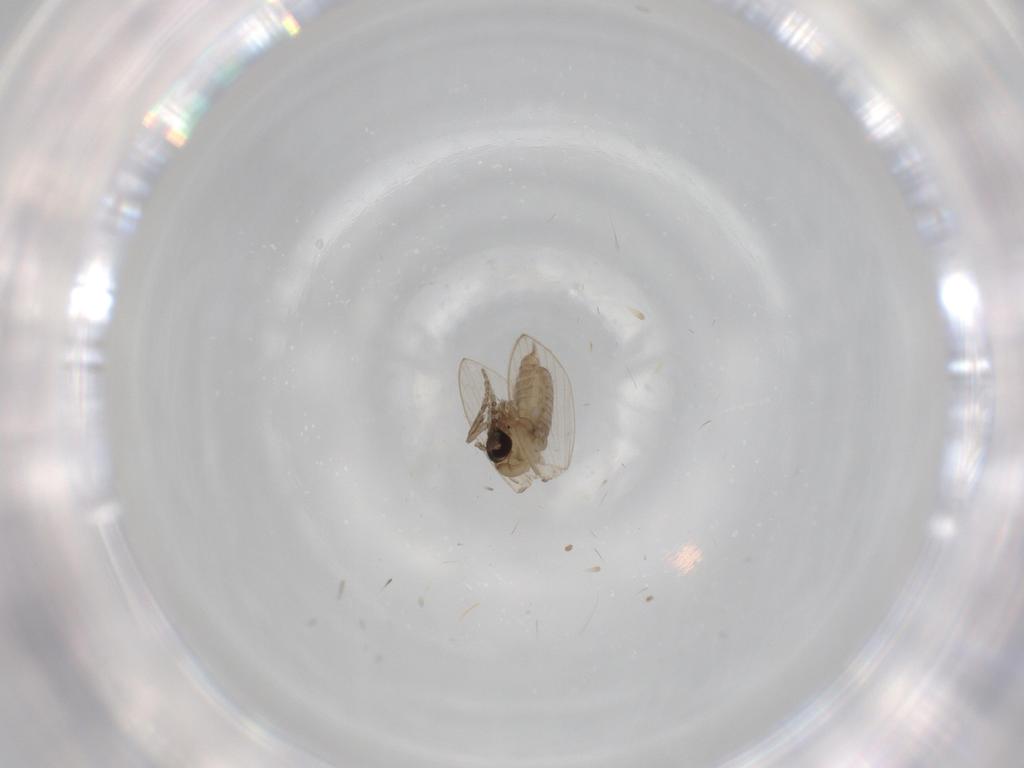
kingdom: Animalia
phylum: Arthropoda
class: Insecta
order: Diptera
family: Psychodidae
